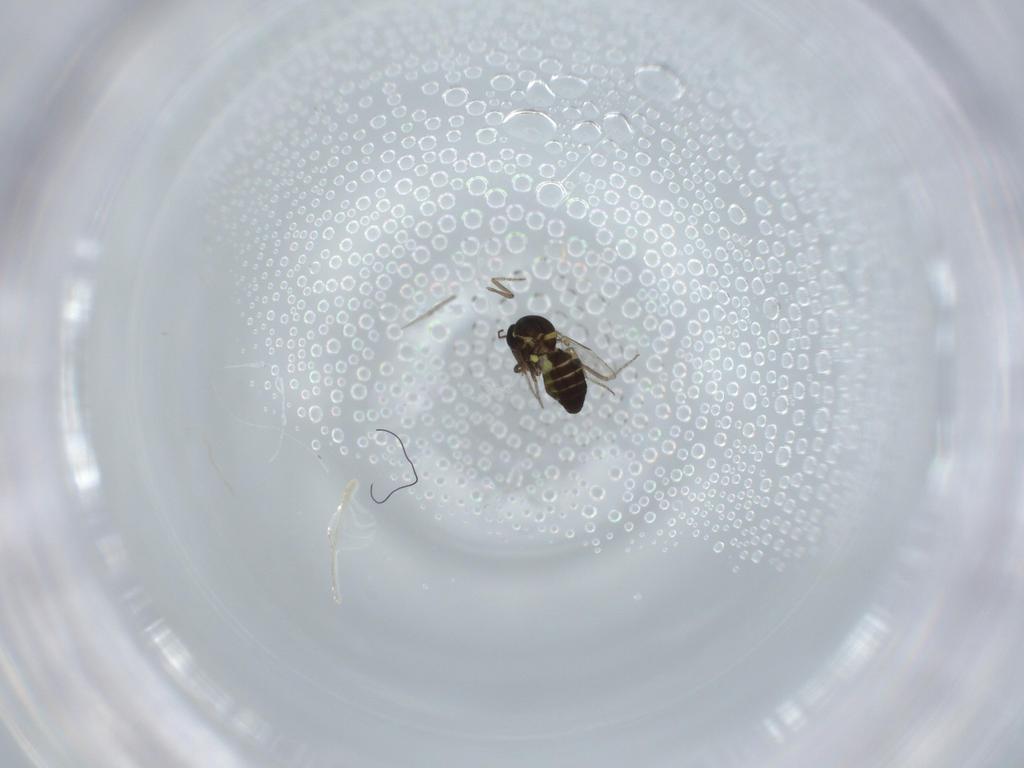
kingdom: Animalia
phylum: Arthropoda
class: Insecta
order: Diptera
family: Ceratopogonidae
